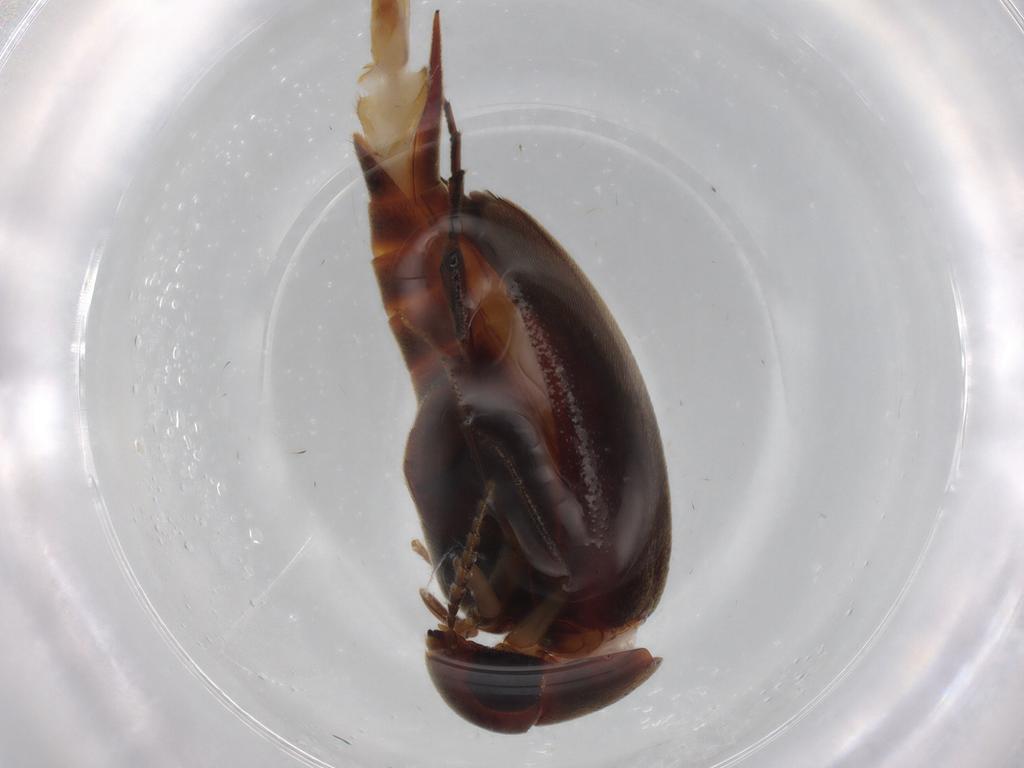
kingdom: Animalia
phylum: Arthropoda
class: Insecta
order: Coleoptera
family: Mordellidae
